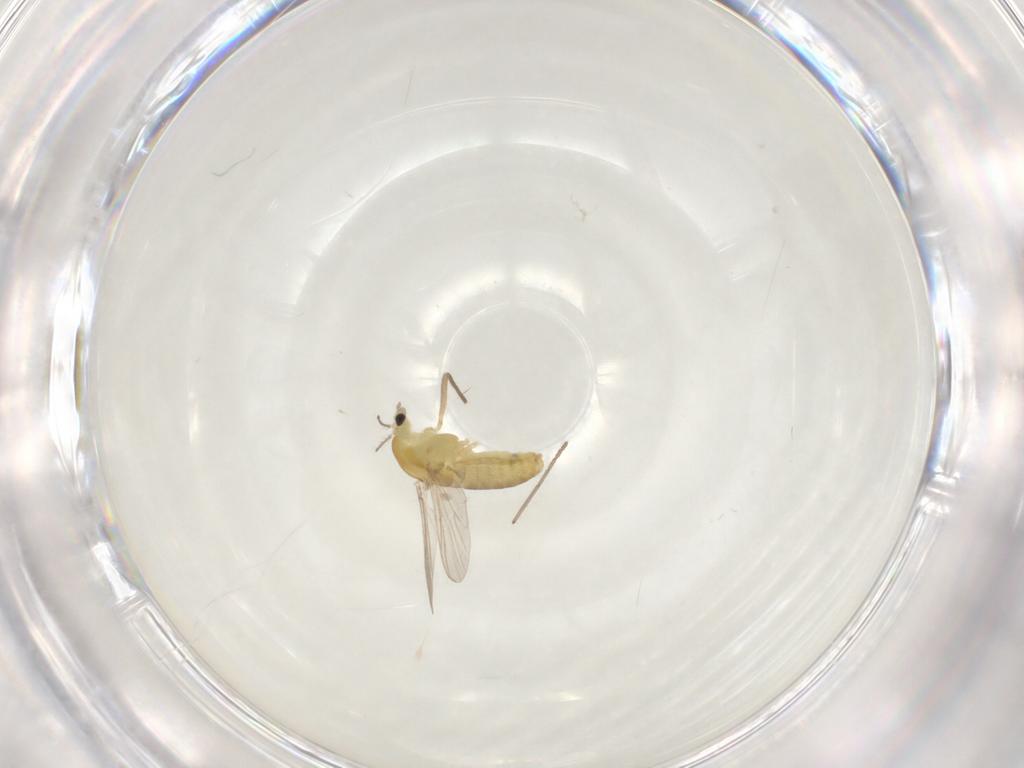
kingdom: Animalia
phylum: Arthropoda
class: Insecta
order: Diptera
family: Chironomidae
